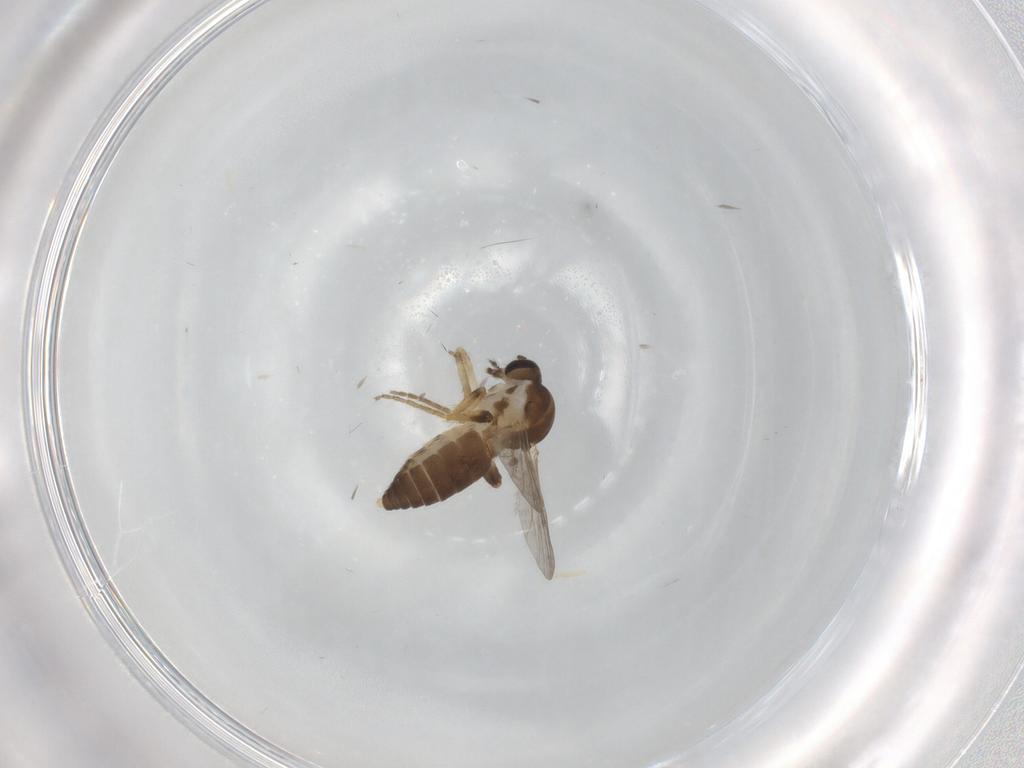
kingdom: Animalia
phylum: Arthropoda
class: Insecta
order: Diptera
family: Ceratopogonidae
